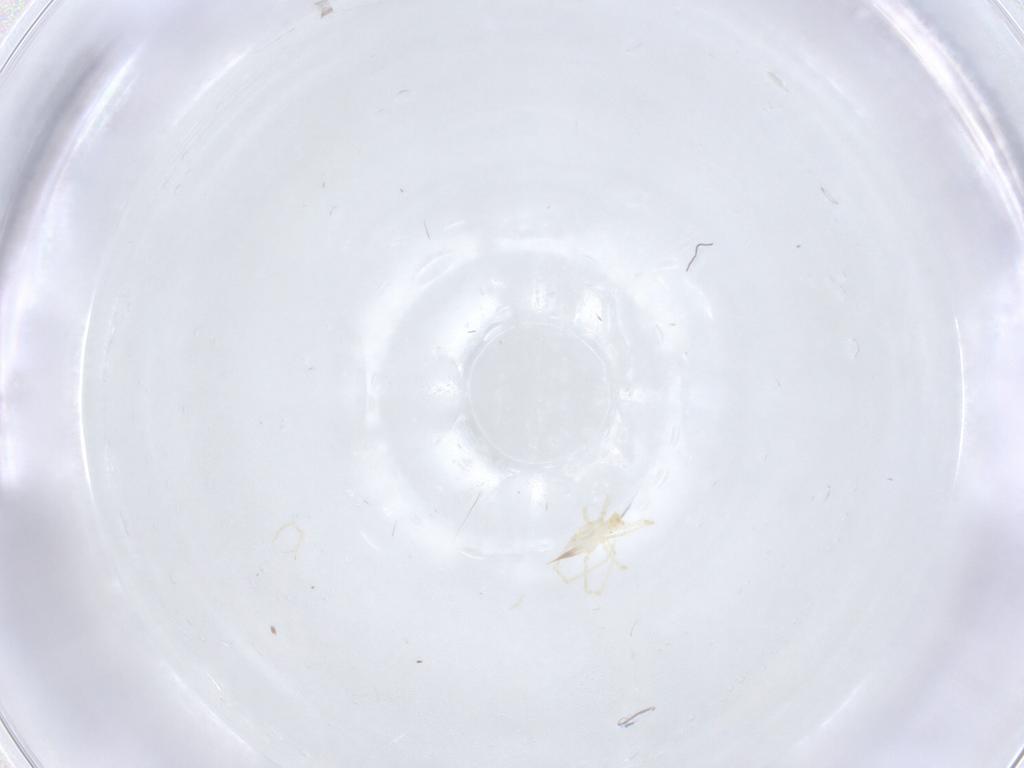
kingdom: Animalia
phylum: Arthropoda
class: Arachnida
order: Trombidiformes
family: Erythraeidae
